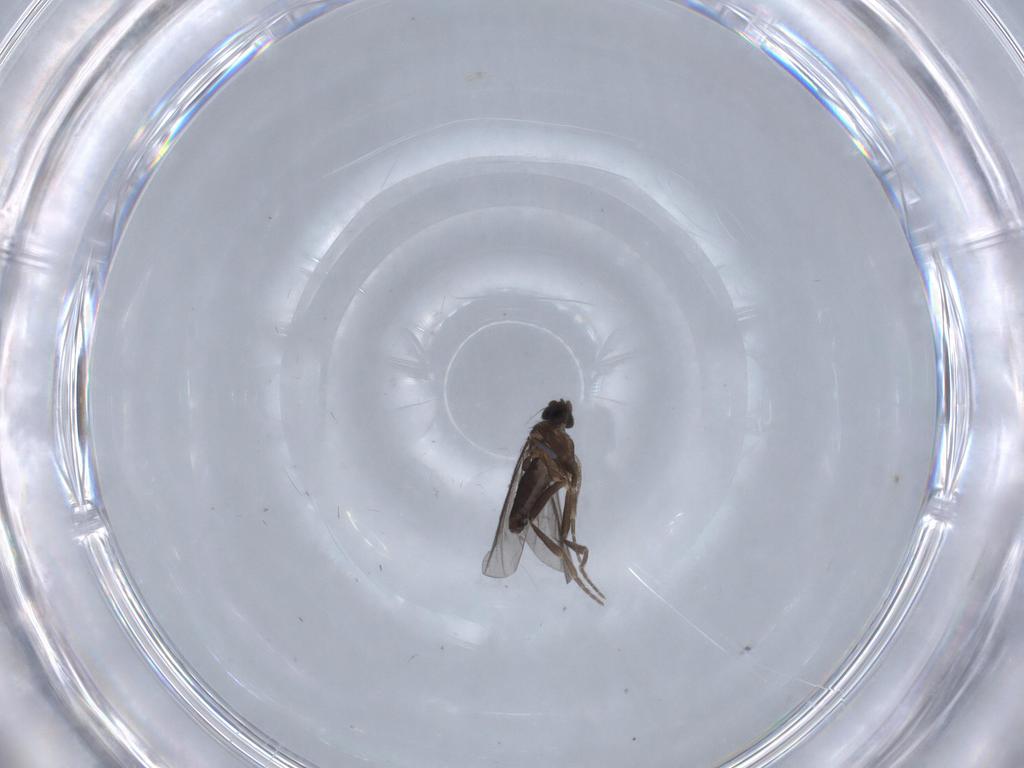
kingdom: Animalia
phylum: Arthropoda
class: Insecta
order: Diptera
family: Phoridae
